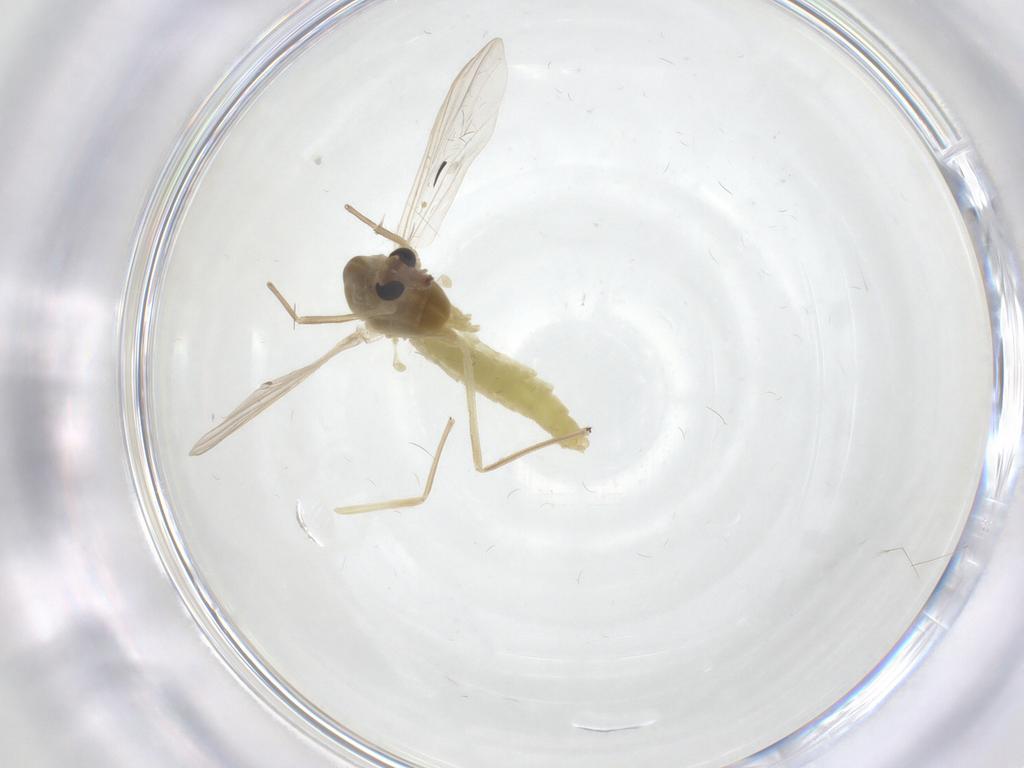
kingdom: Animalia
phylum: Arthropoda
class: Insecta
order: Diptera
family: Chironomidae
